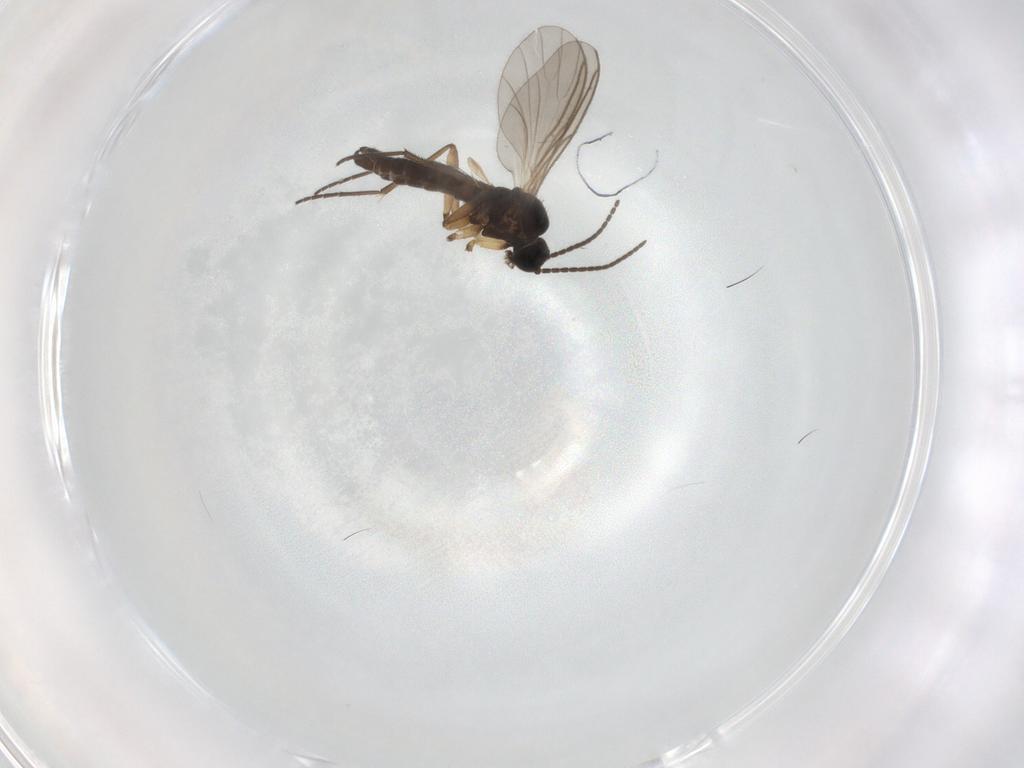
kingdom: Animalia
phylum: Arthropoda
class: Insecta
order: Diptera
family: Sciaridae
